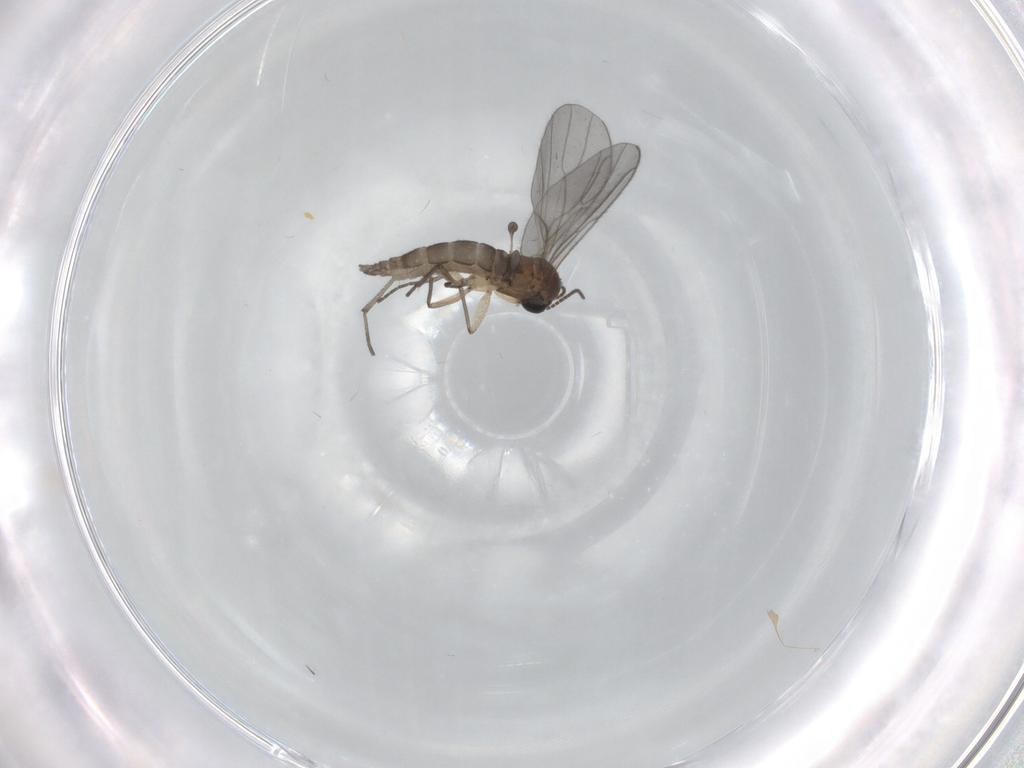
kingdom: Animalia
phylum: Arthropoda
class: Insecta
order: Diptera
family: Sciaridae
